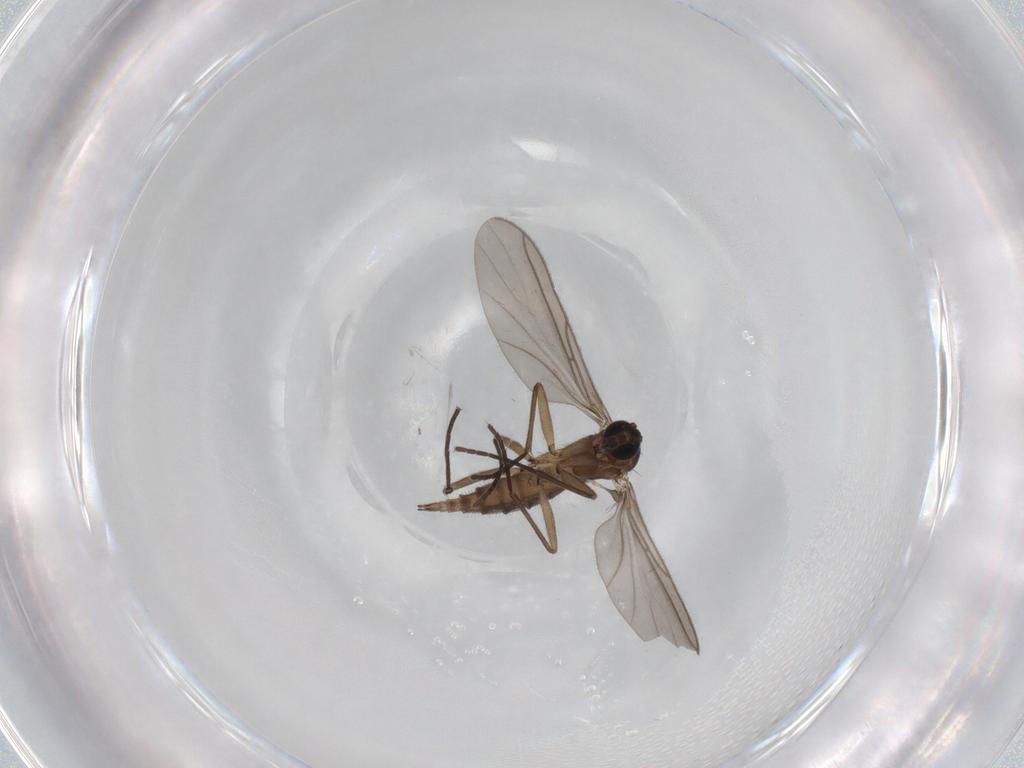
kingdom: Animalia
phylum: Arthropoda
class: Insecta
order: Diptera
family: Sciaridae
